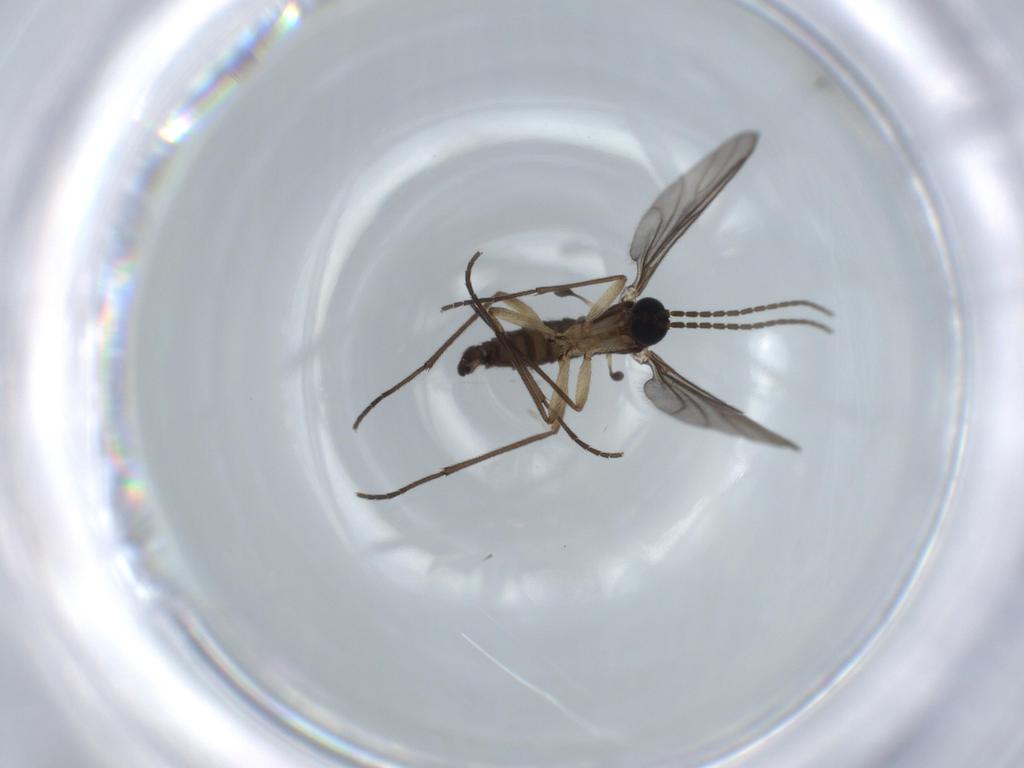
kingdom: Animalia
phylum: Arthropoda
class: Insecta
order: Diptera
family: Sciaridae
